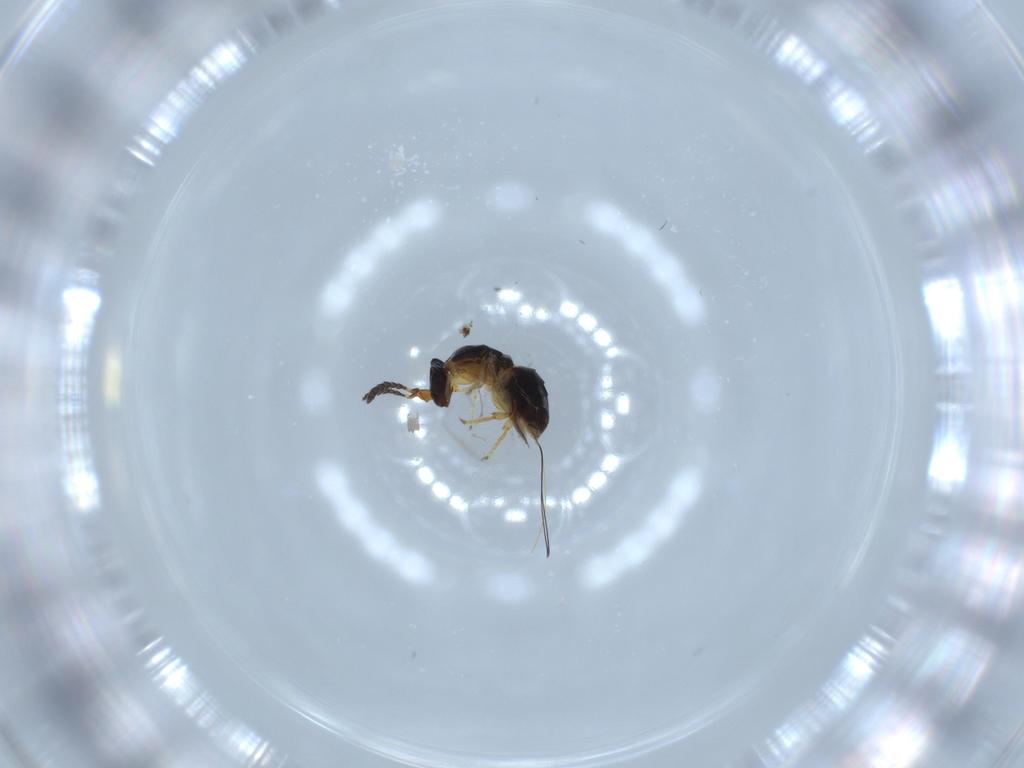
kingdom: Animalia
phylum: Arthropoda
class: Insecta
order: Hymenoptera
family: Agaonidae
